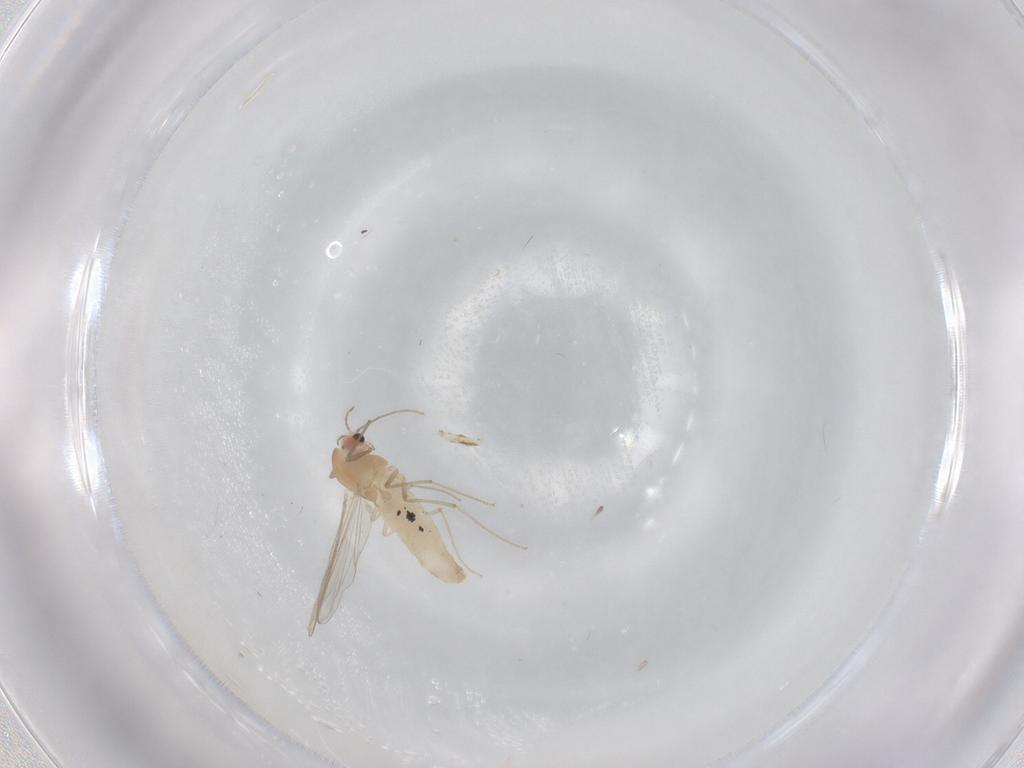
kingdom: Animalia
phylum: Arthropoda
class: Insecta
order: Diptera
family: Chironomidae
